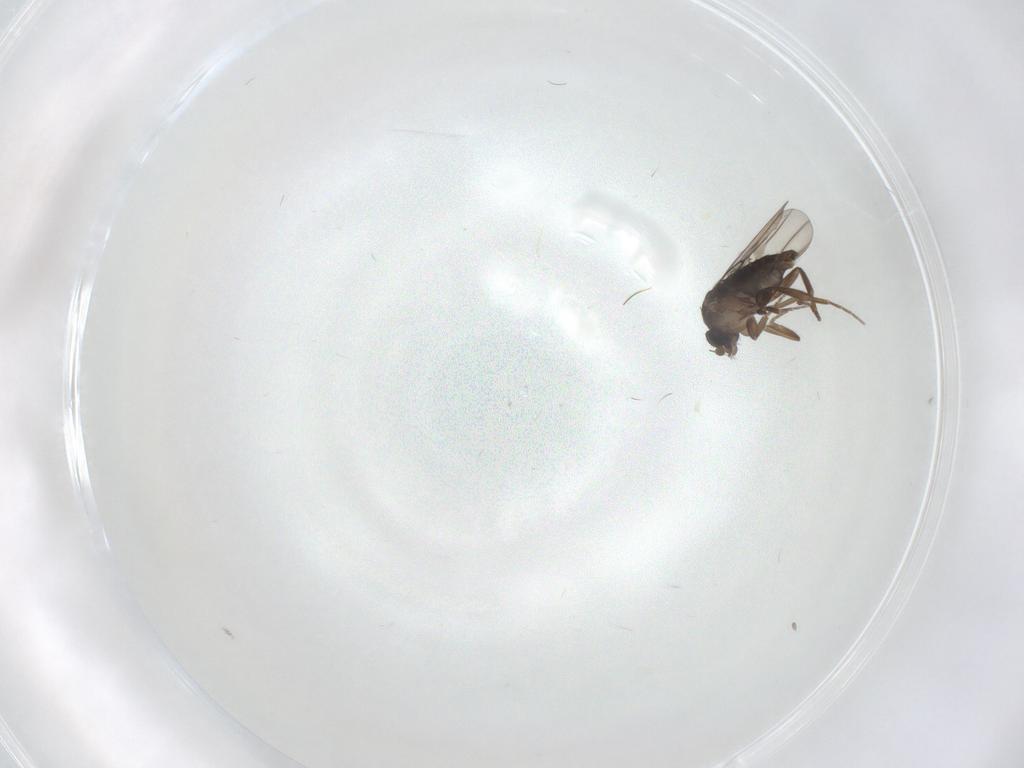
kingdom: Animalia
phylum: Arthropoda
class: Insecta
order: Diptera
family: Phoridae
